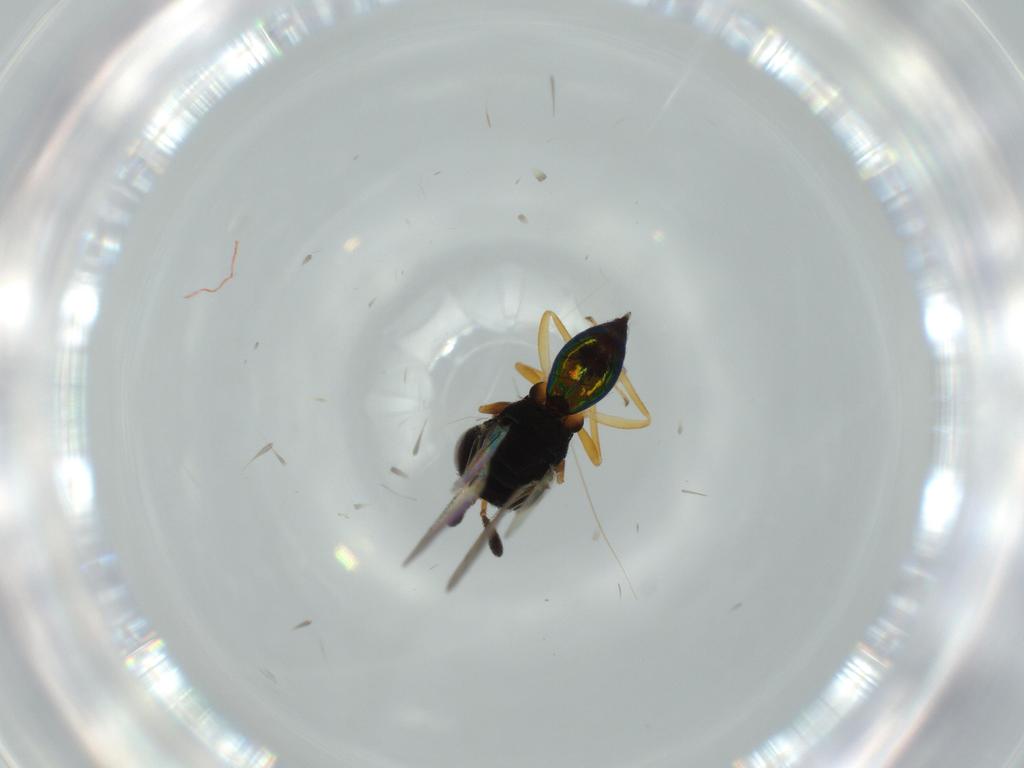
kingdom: Animalia
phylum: Arthropoda
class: Insecta
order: Hymenoptera
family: Pteromalidae
